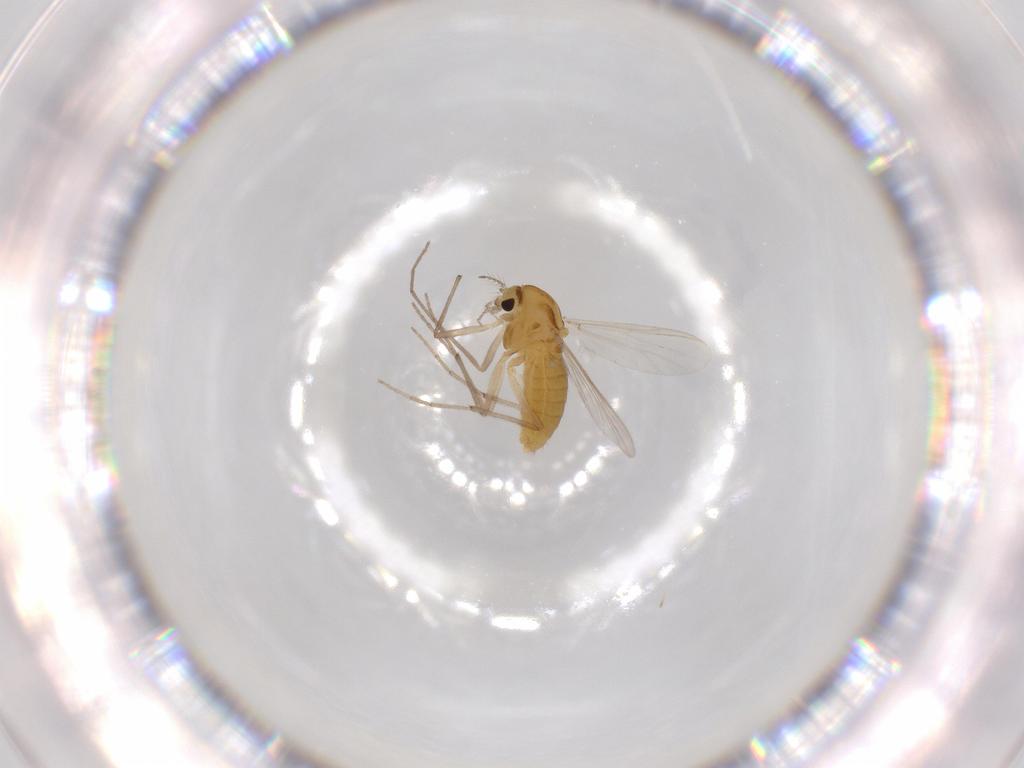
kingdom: Animalia
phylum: Arthropoda
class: Insecta
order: Diptera
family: Chironomidae
